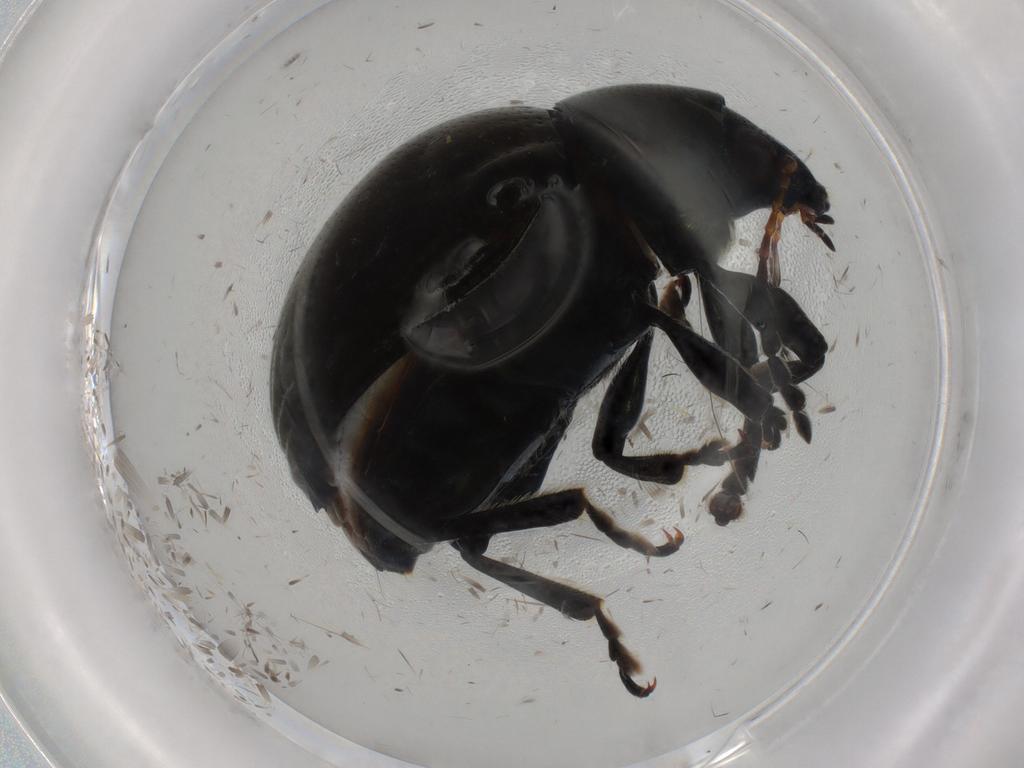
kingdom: Animalia
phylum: Arthropoda
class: Insecta
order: Coleoptera
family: Chrysomelidae
